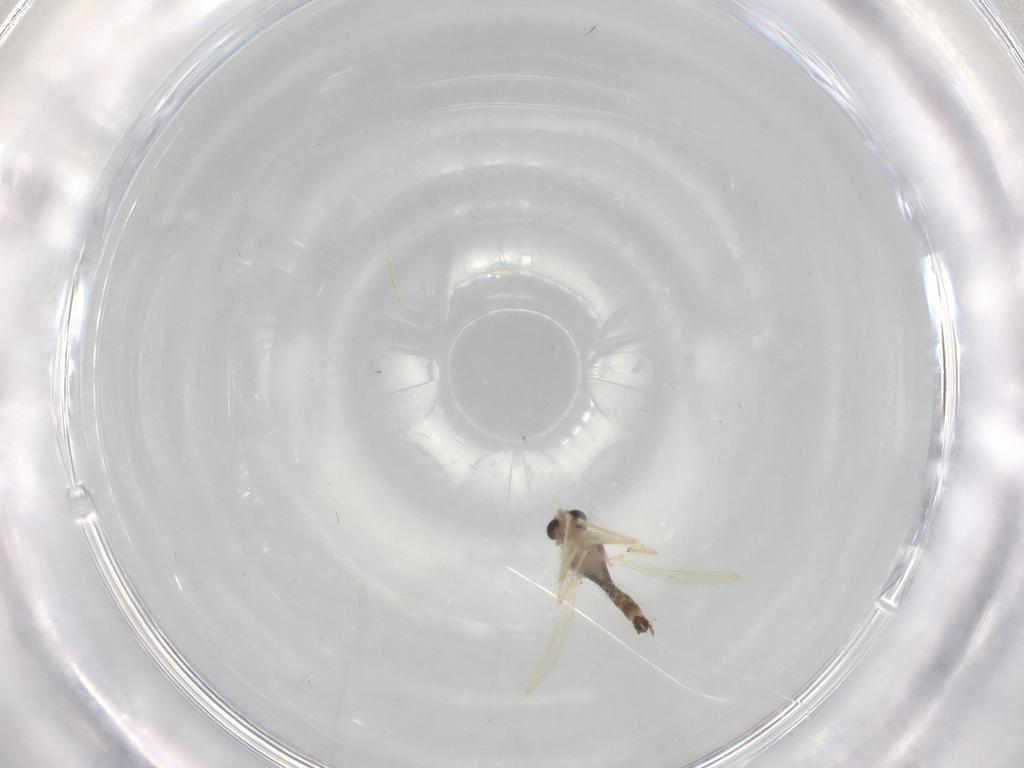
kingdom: Animalia
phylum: Arthropoda
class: Insecta
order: Diptera
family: Chironomidae
